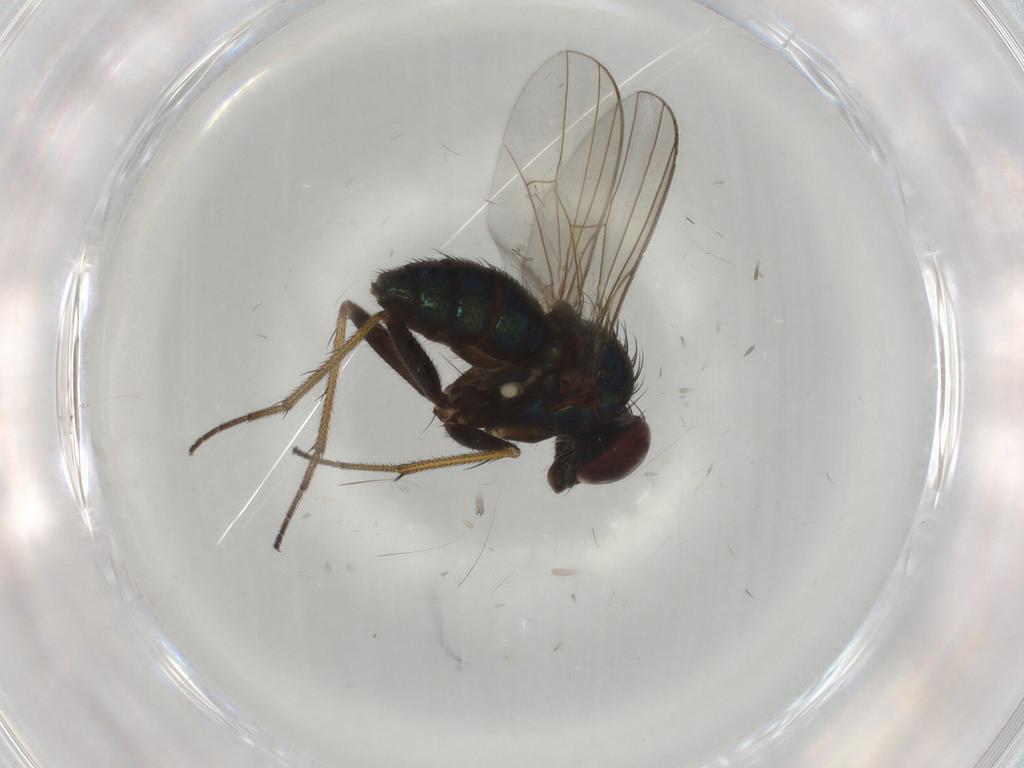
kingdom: Animalia
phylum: Arthropoda
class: Insecta
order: Diptera
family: Dolichopodidae
